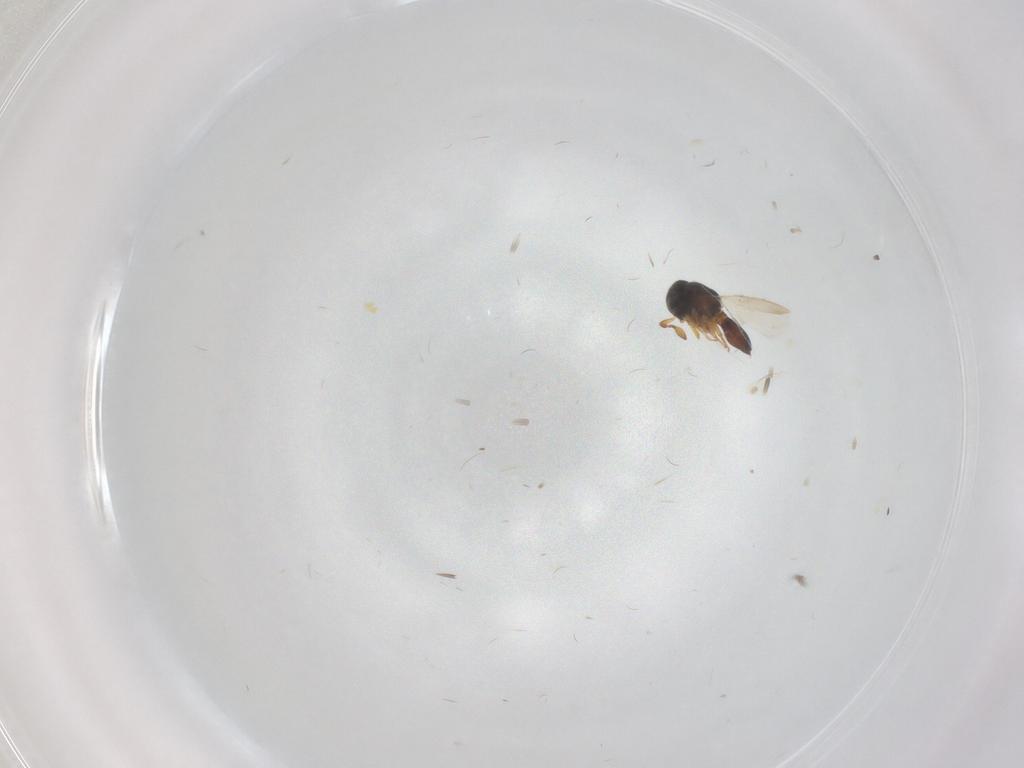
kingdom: Animalia
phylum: Arthropoda
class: Insecta
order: Hymenoptera
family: Scelionidae
